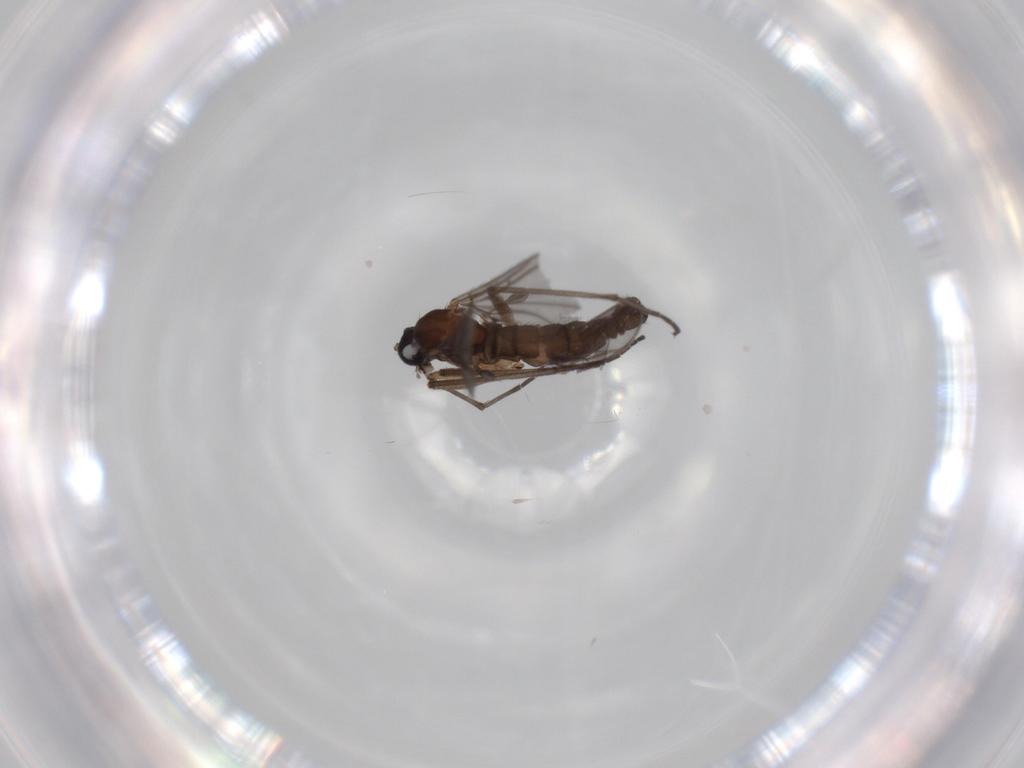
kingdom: Animalia
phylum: Arthropoda
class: Insecta
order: Diptera
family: Sciaridae
